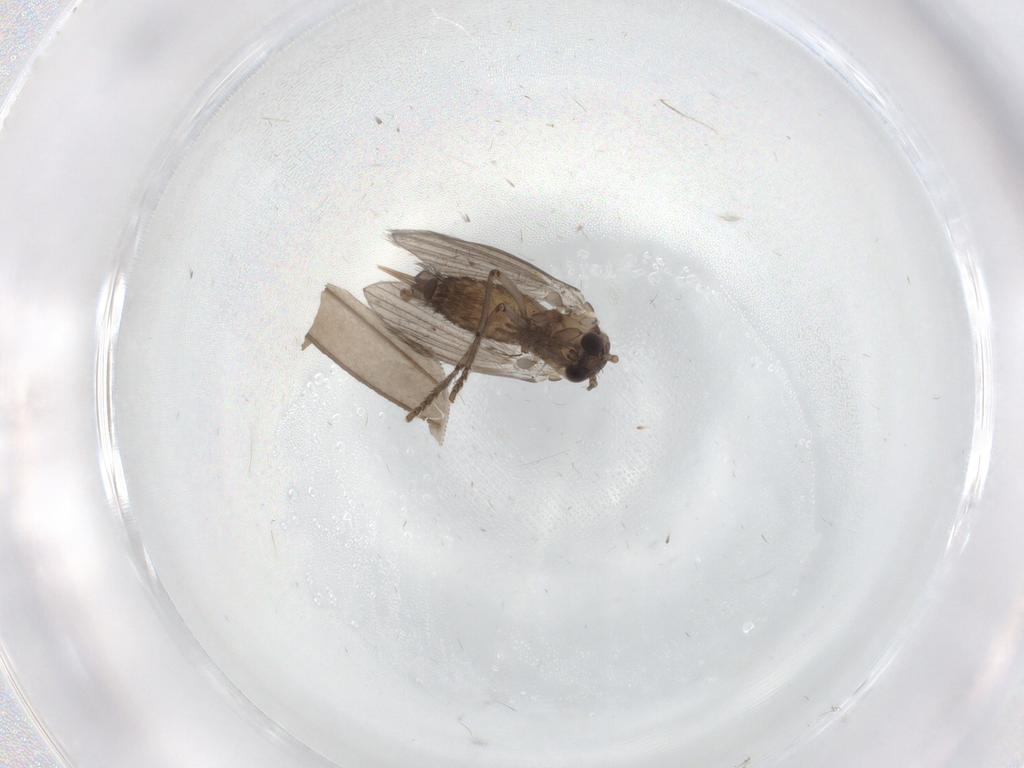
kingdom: Animalia
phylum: Arthropoda
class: Insecta
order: Diptera
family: Psychodidae
